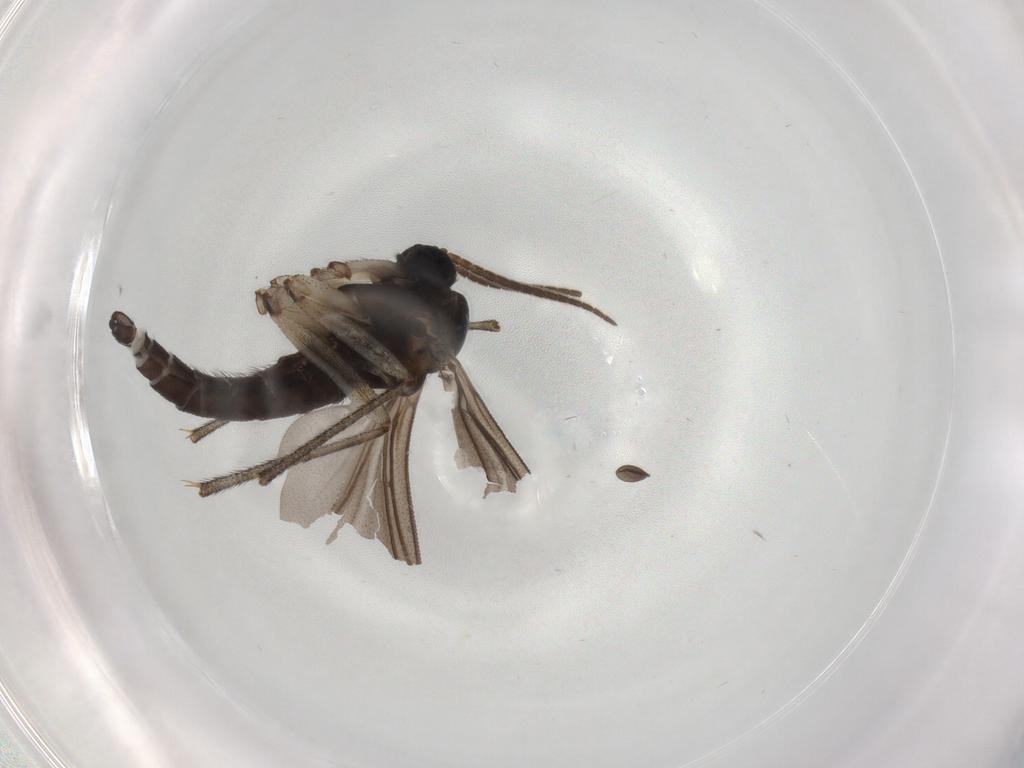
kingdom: Animalia
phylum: Arthropoda
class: Insecta
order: Diptera
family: Sciaridae
